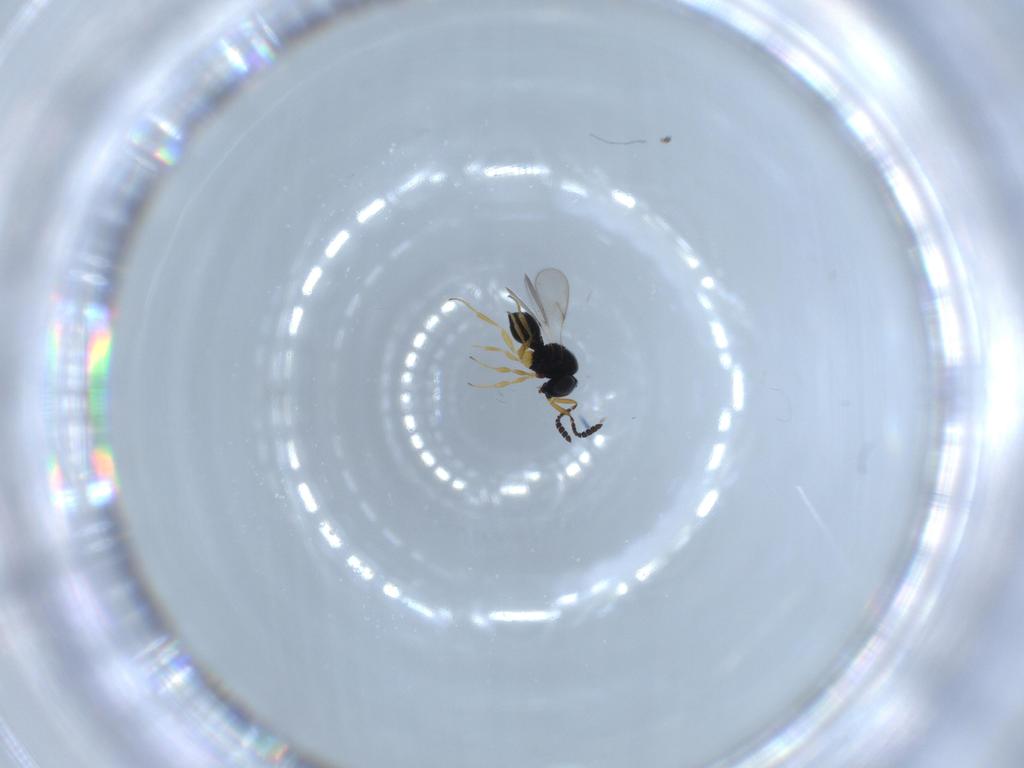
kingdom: Animalia
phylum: Arthropoda
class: Insecta
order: Hymenoptera
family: Scelionidae
